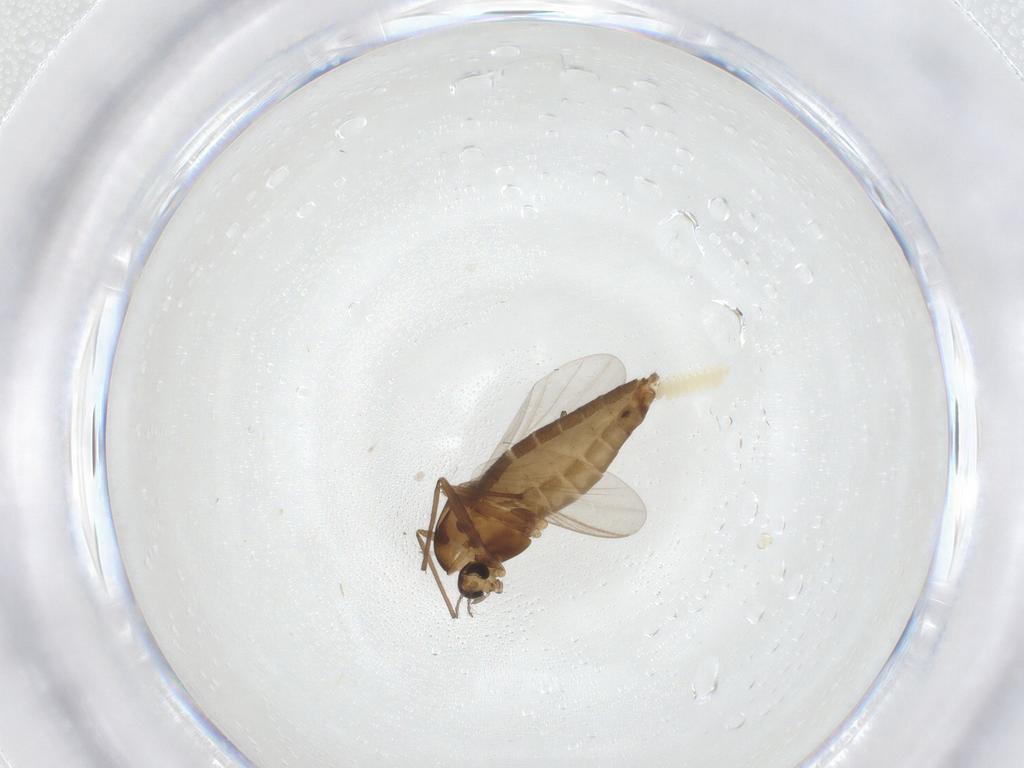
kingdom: Animalia
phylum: Arthropoda
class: Insecta
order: Diptera
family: Chironomidae
